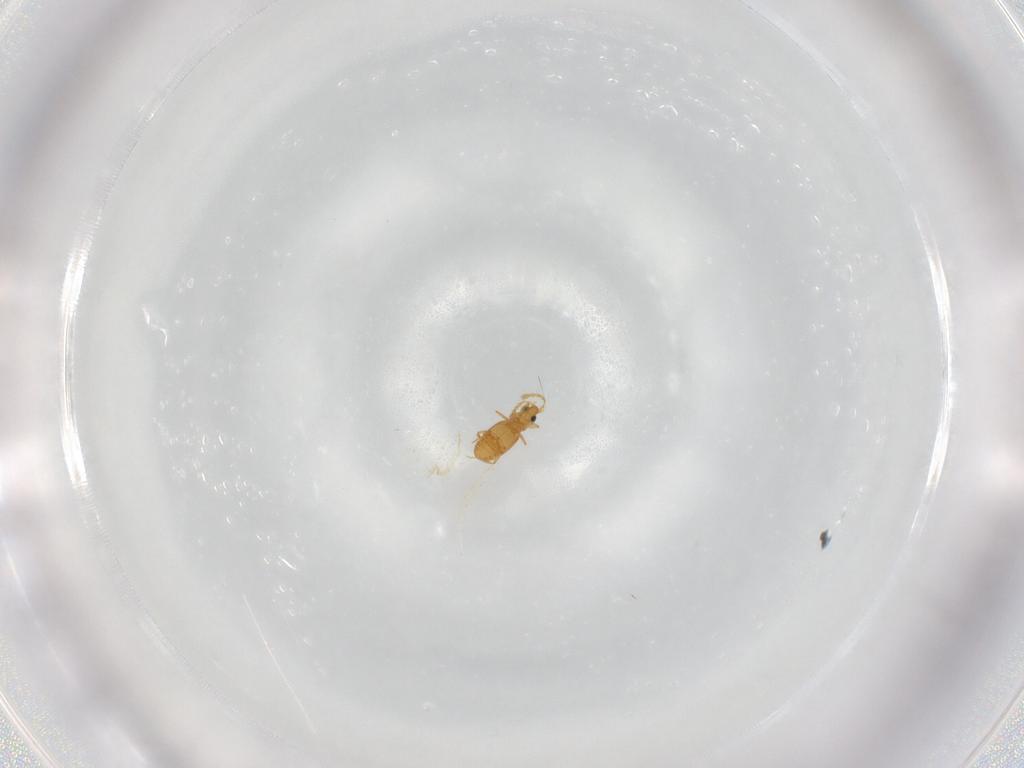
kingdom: Animalia
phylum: Arthropoda
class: Insecta
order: Coleoptera
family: Staphylinidae
